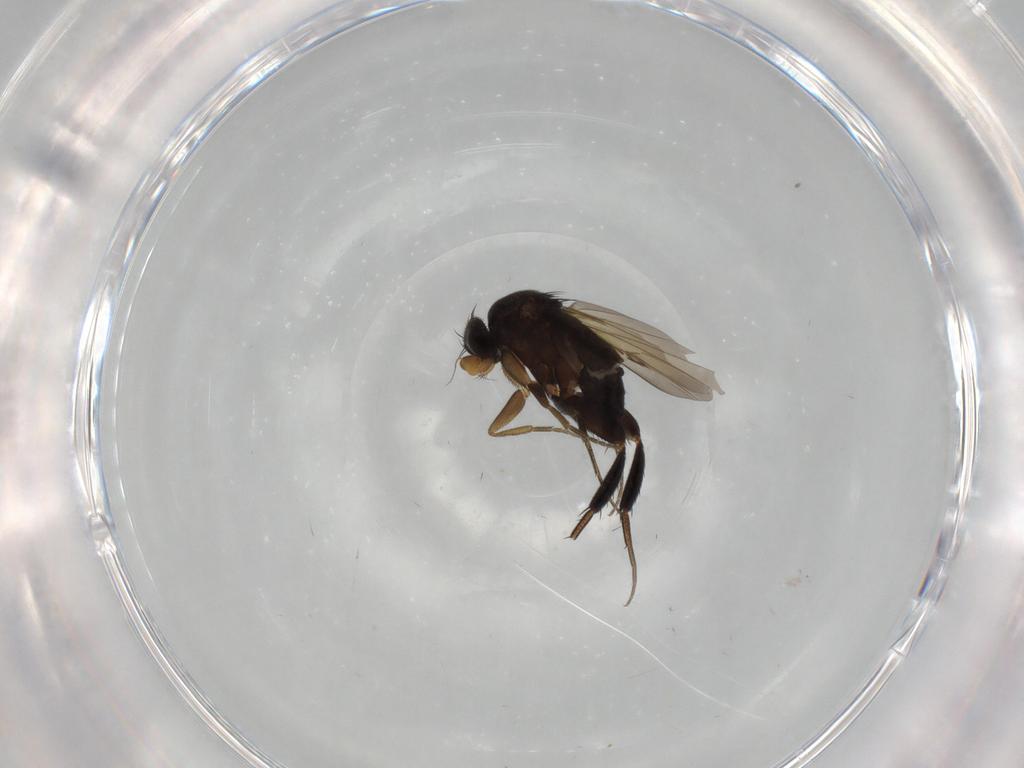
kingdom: Animalia
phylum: Arthropoda
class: Insecta
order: Diptera
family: Phoridae
